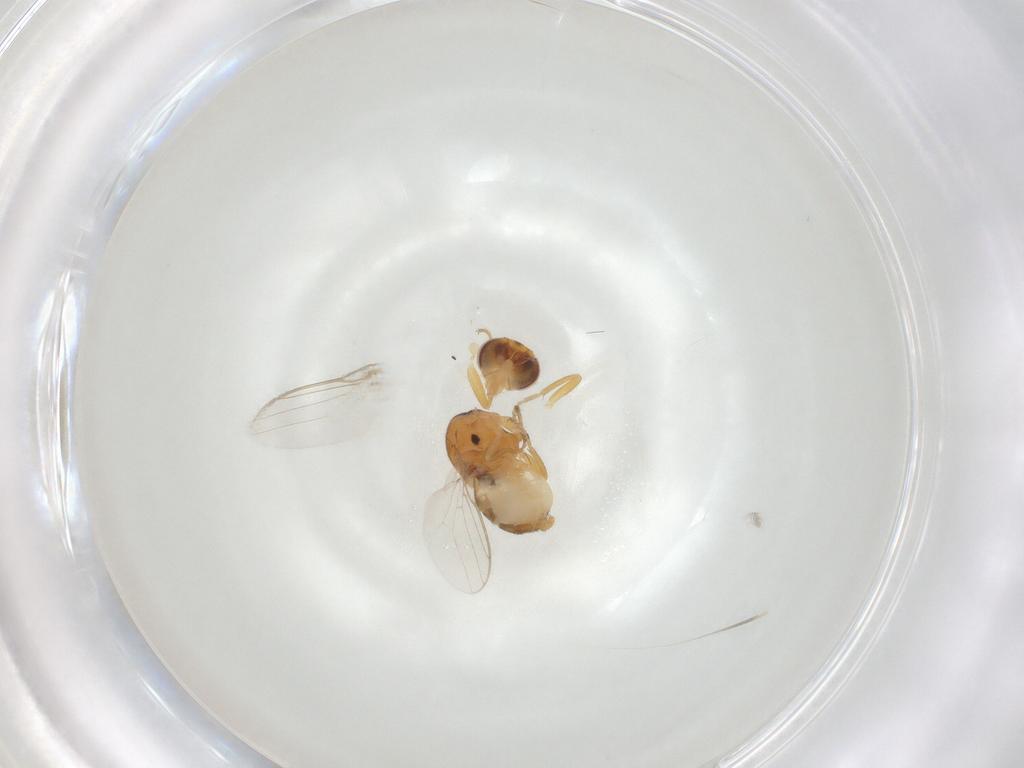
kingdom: Animalia
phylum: Arthropoda
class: Insecta
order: Diptera
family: Chloropidae
